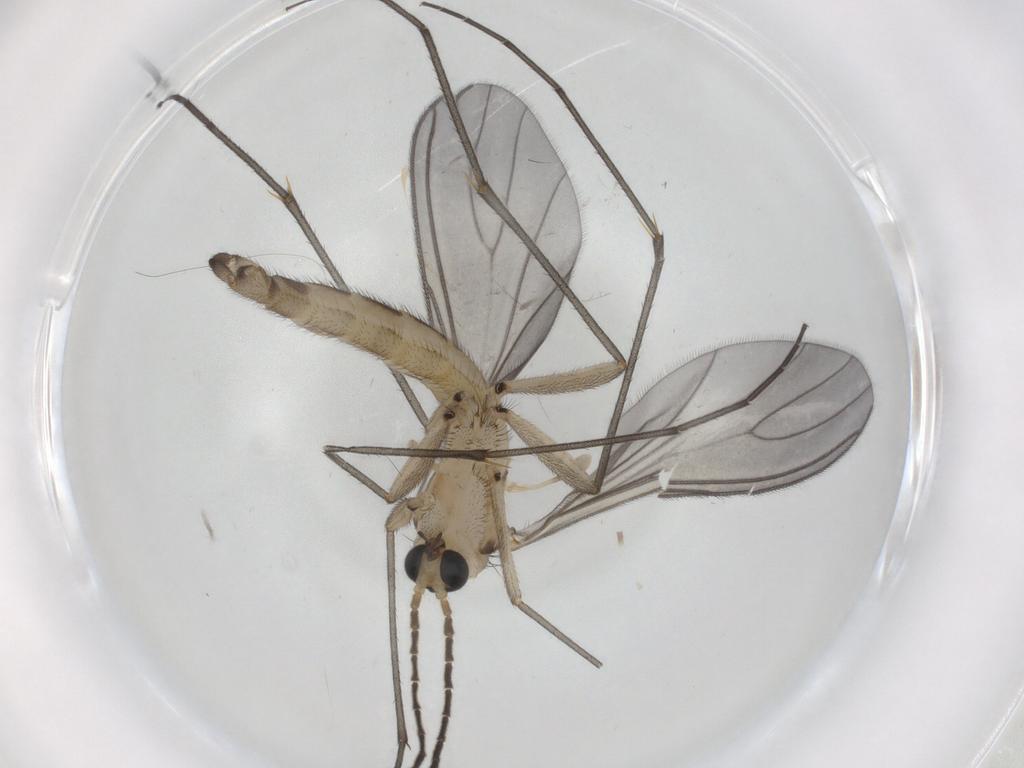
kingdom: Animalia
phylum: Arthropoda
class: Insecta
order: Diptera
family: Sciaridae
